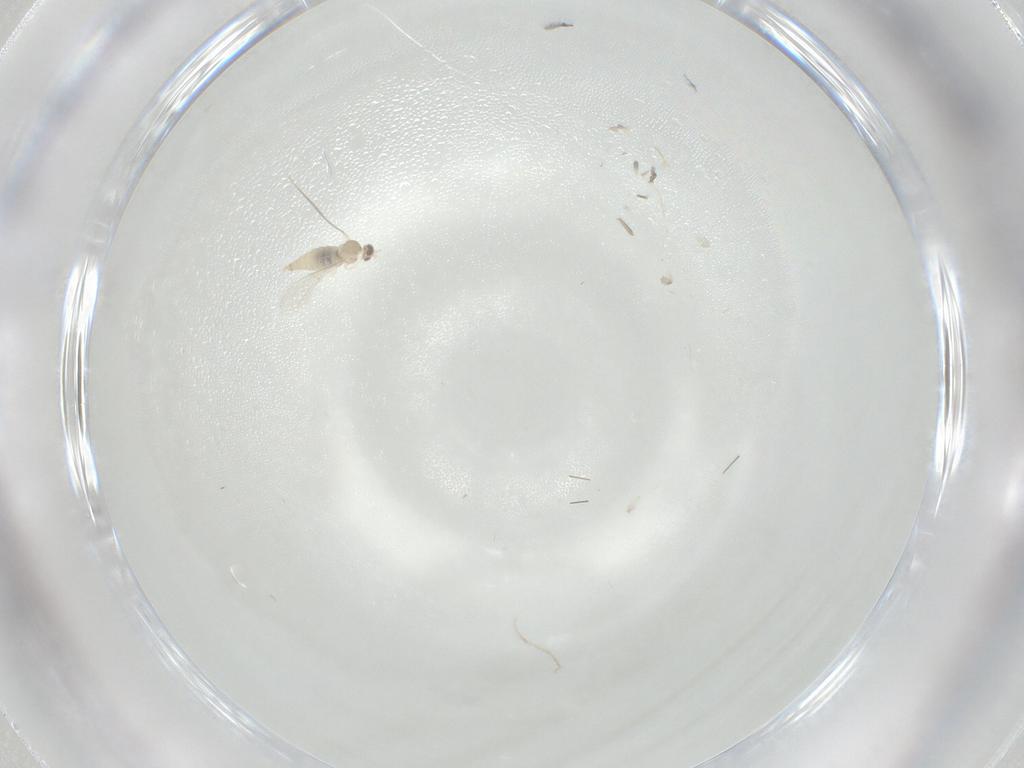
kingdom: Animalia
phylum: Arthropoda
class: Insecta
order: Diptera
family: Cecidomyiidae
